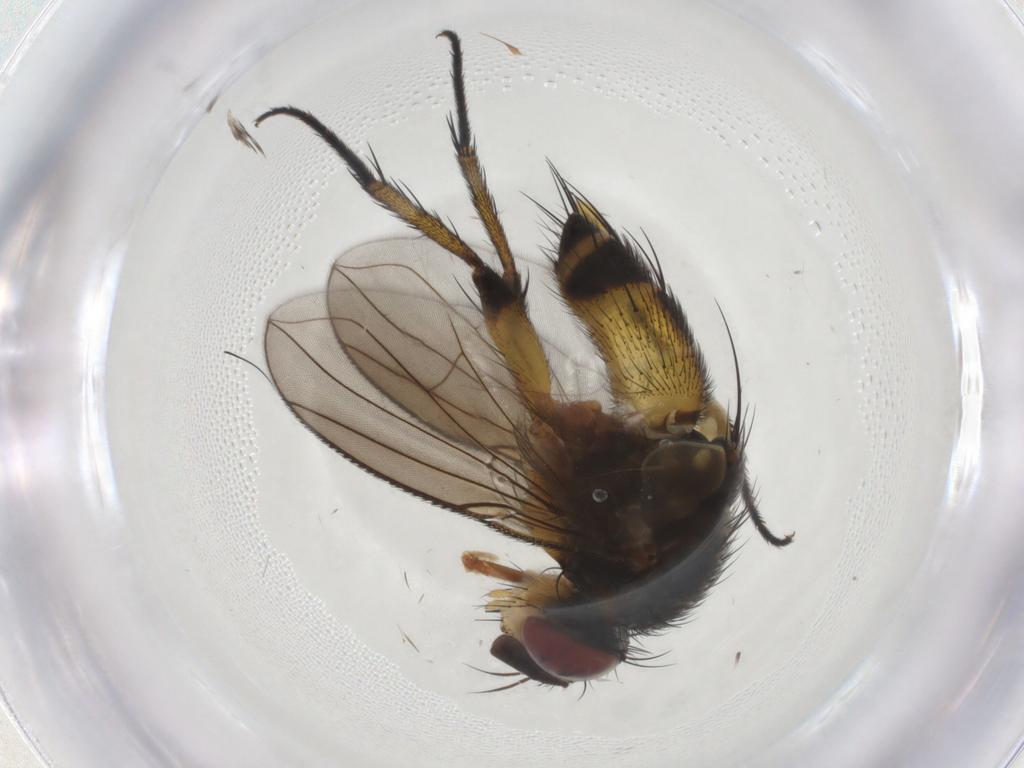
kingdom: Animalia
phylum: Arthropoda
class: Insecta
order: Diptera
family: Tachinidae
